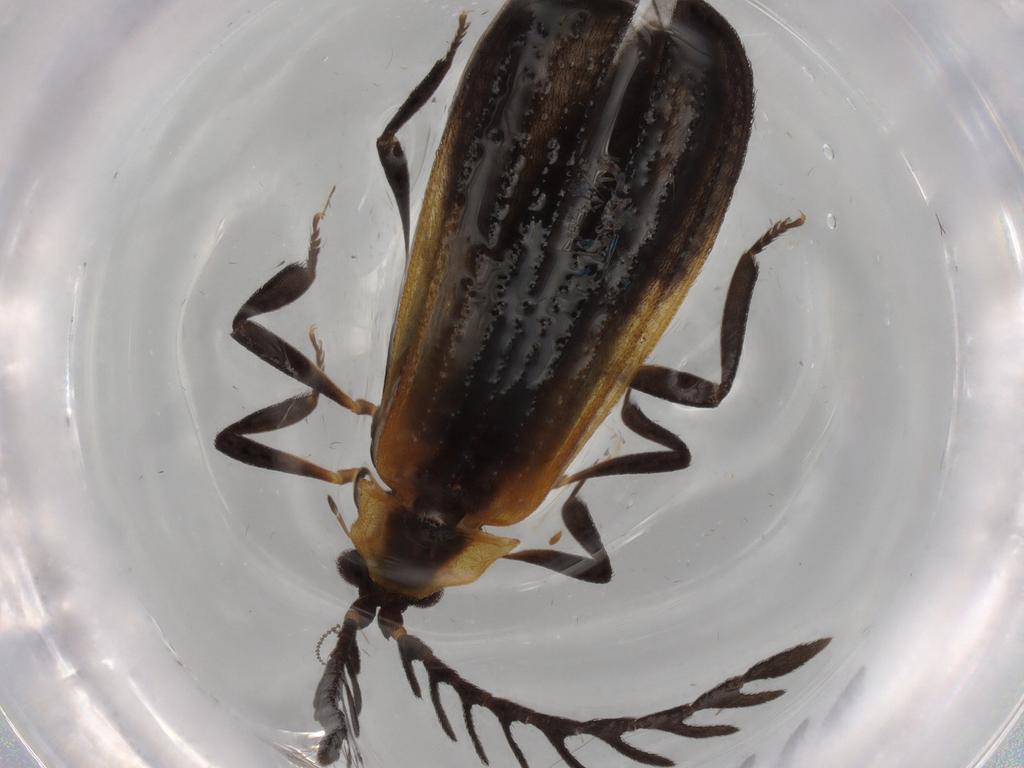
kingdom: Animalia
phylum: Arthropoda
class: Insecta
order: Coleoptera
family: Lycidae
